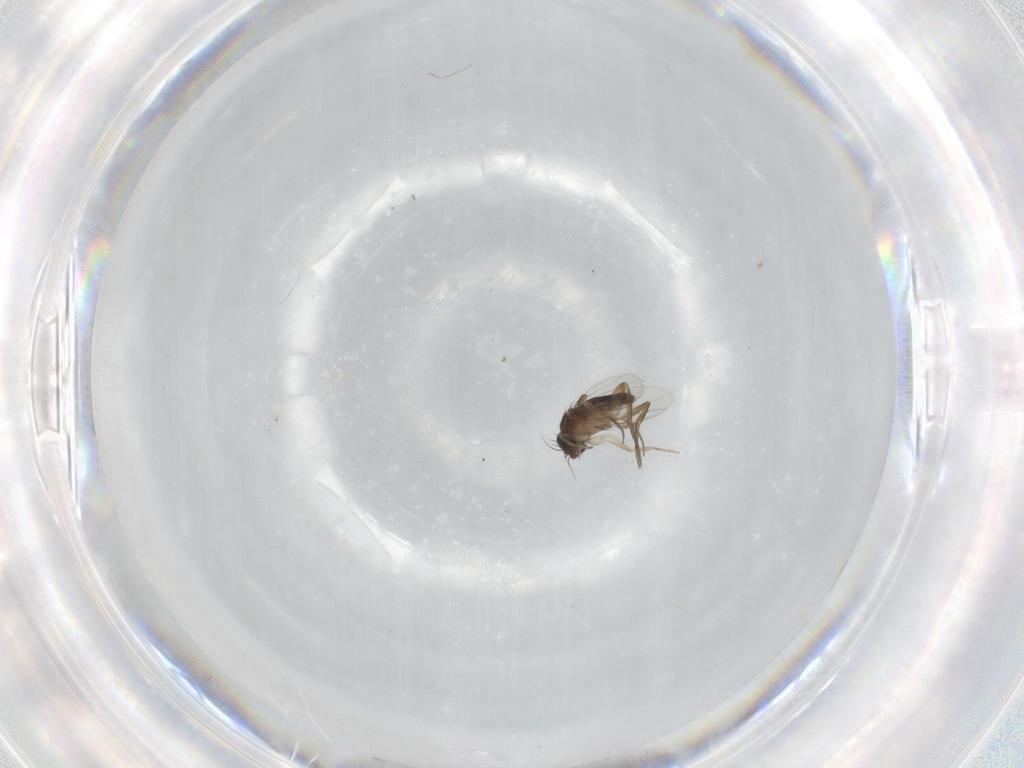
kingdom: Animalia
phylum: Arthropoda
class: Insecta
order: Diptera
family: Phoridae
